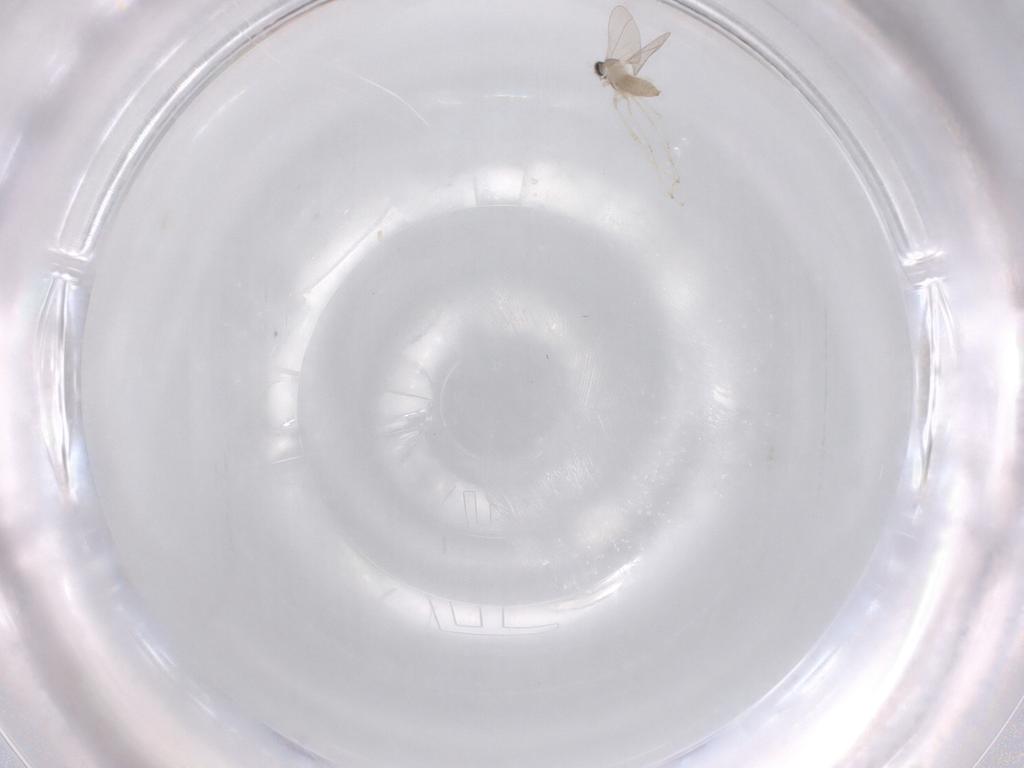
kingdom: Animalia
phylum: Arthropoda
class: Insecta
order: Diptera
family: Cecidomyiidae
